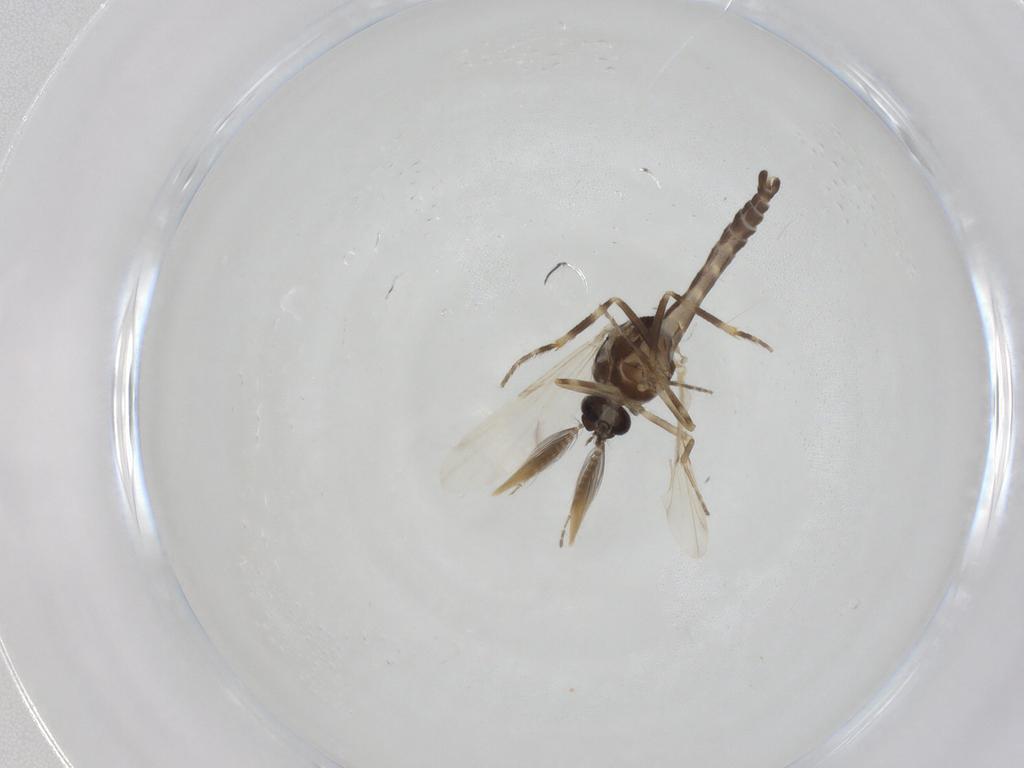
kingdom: Animalia
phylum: Arthropoda
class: Insecta
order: Diptera
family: Ceratopogonidae
